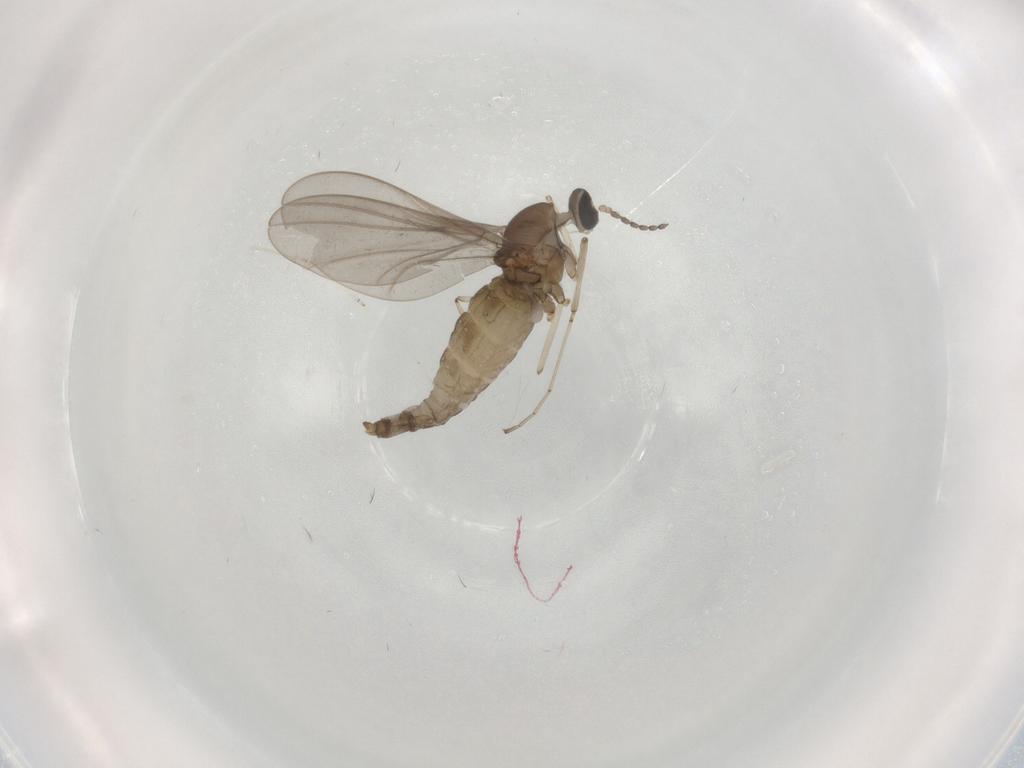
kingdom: Animalia
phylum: Arthropoda
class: Insecta
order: Diptera
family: Cecidomyiidae
